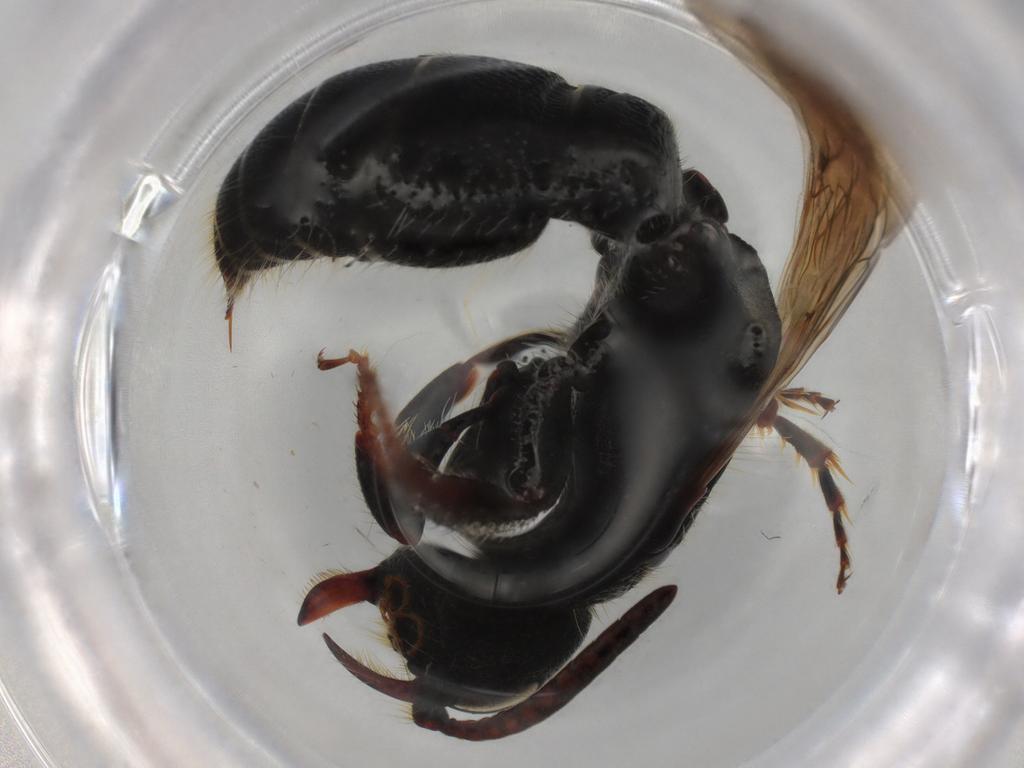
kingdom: Animalia
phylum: Arthropoda
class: Insecta
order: Hymenoptera
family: Tiphiidae
